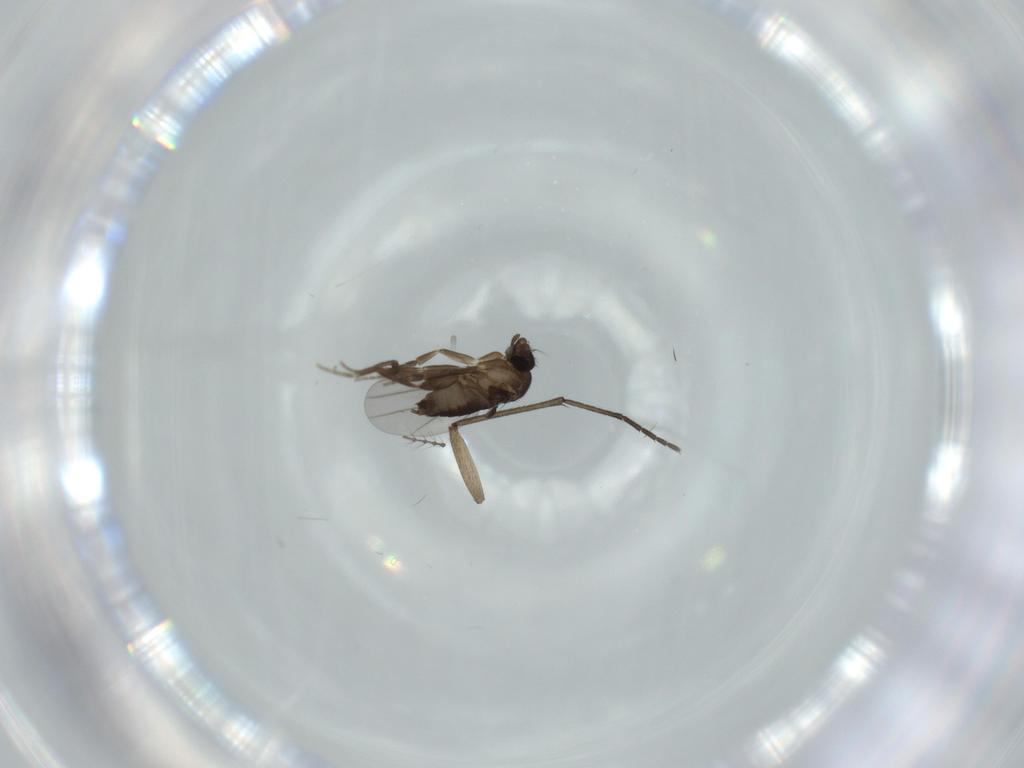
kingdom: Animalia
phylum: Arthropoda
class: Insecta
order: Diptera
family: Phoridae
